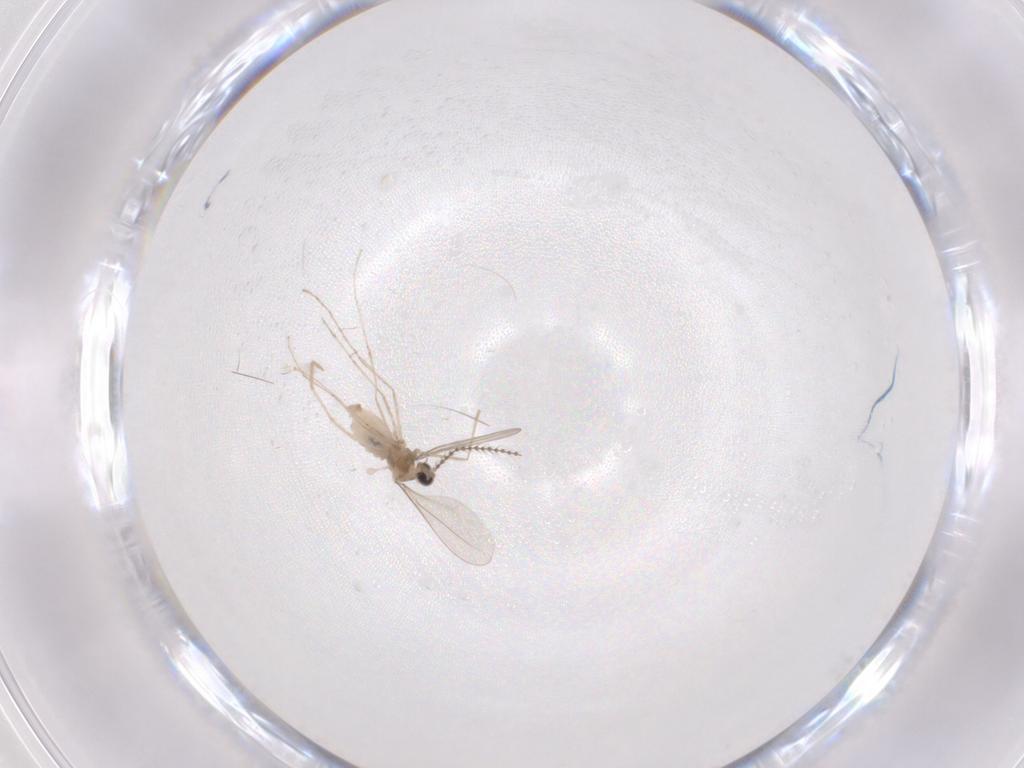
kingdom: Animalia
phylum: Arthropoda
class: Insecta
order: Diptera
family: Chironomidae
